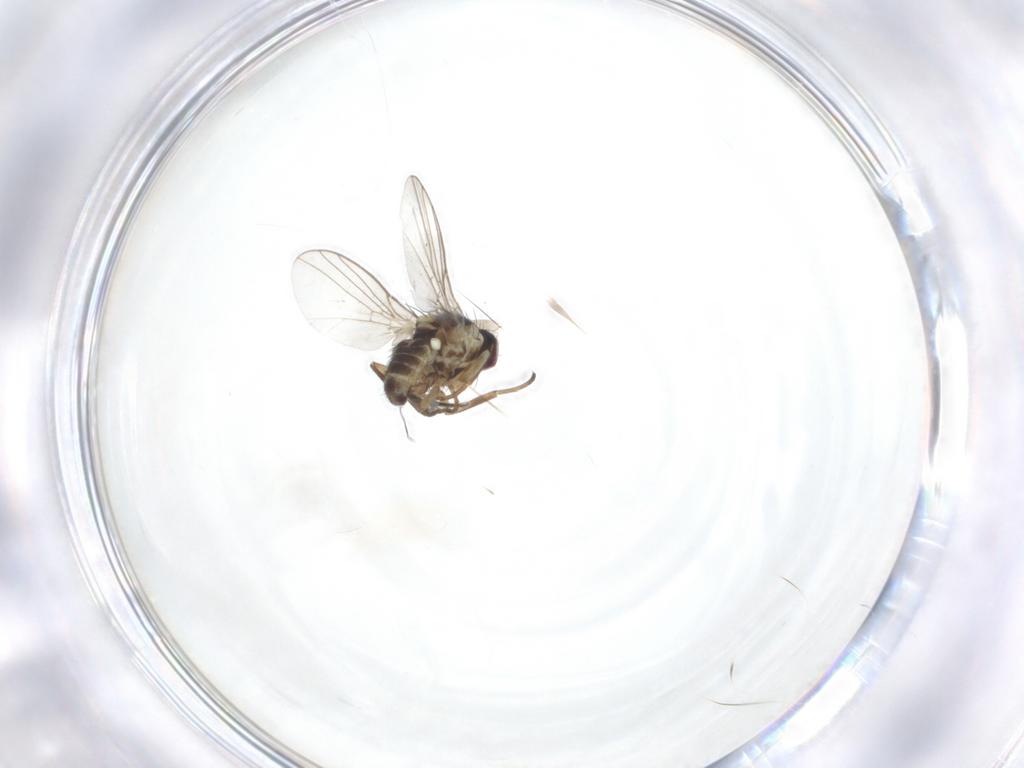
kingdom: Animalia
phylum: Arthropoda
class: Insecta
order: Diptera
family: Agromyzidae
